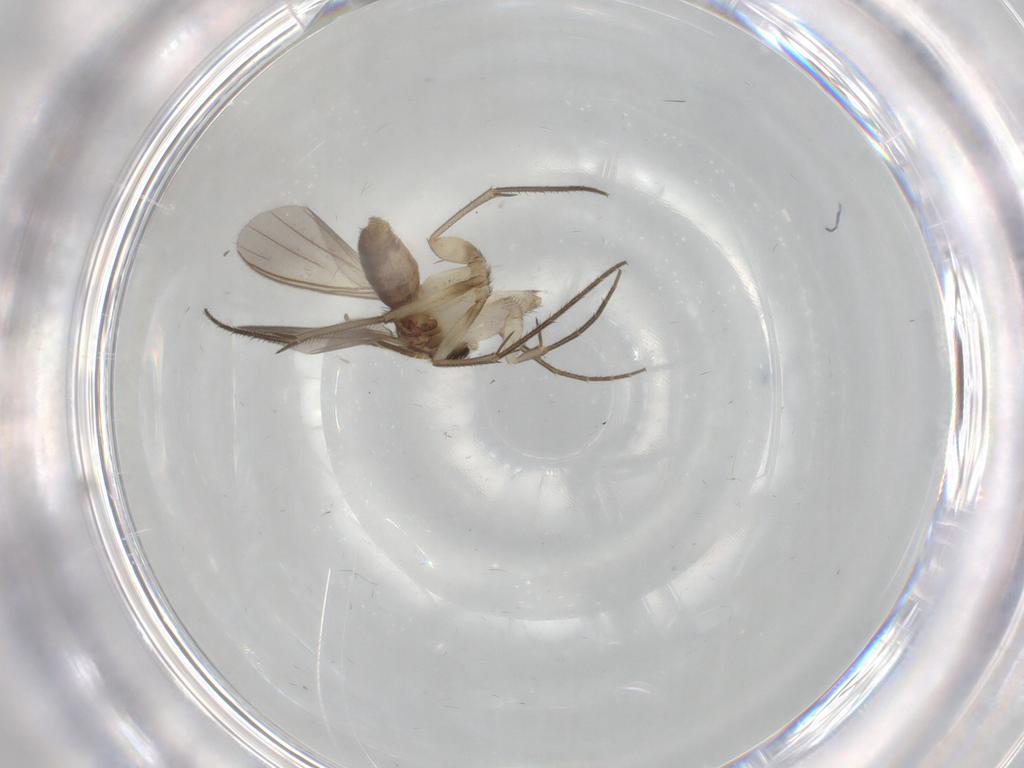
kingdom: Animalia
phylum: Arthropoda
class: Insecta
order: Diptera
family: Mycetophilidae
